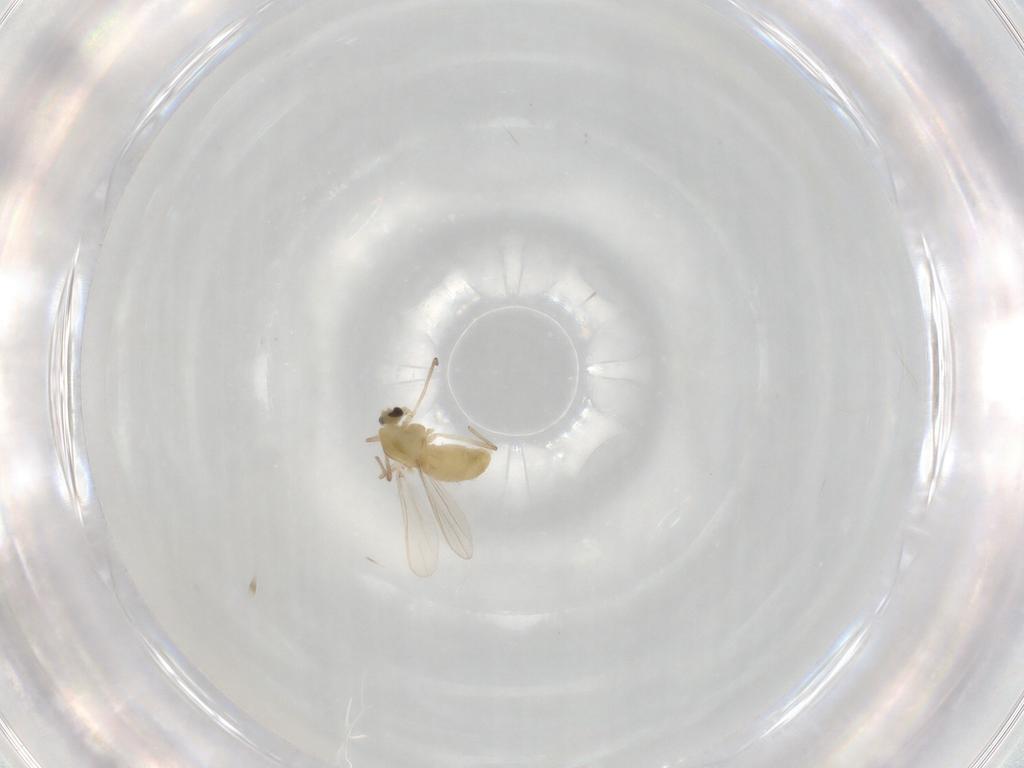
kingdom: Animalia
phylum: Arthropoda
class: Insecta
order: Diptera
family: Chironomidae
